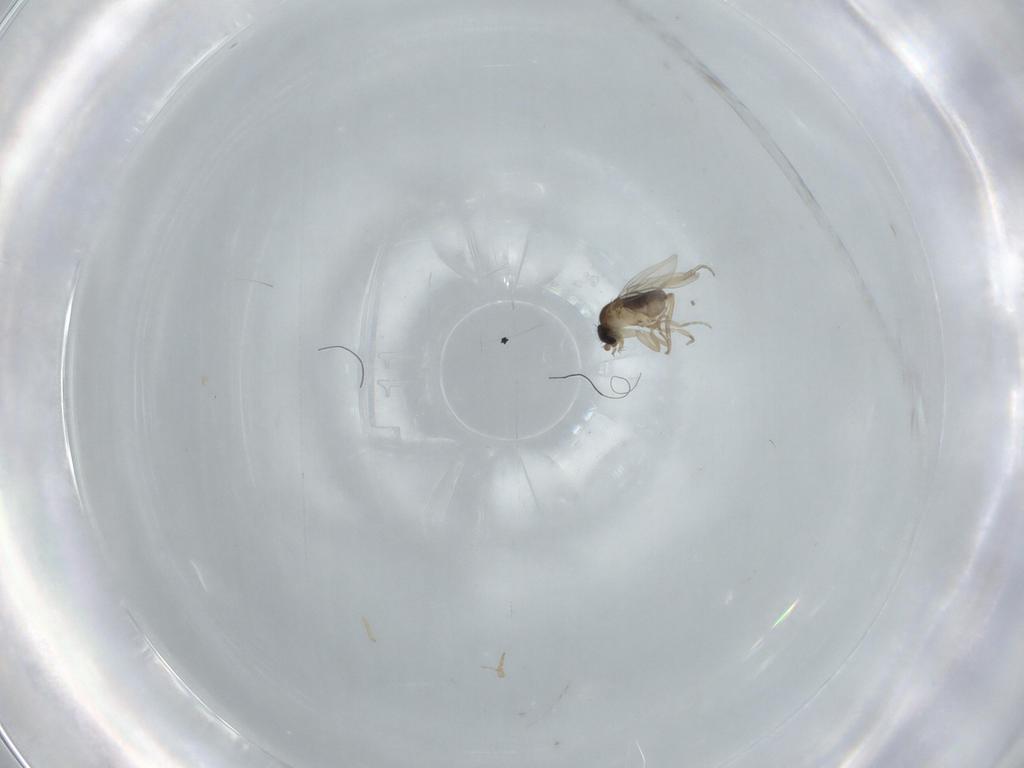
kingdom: Animalia
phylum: Arthropoda
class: Insecta
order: Diptera
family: Phoridae
